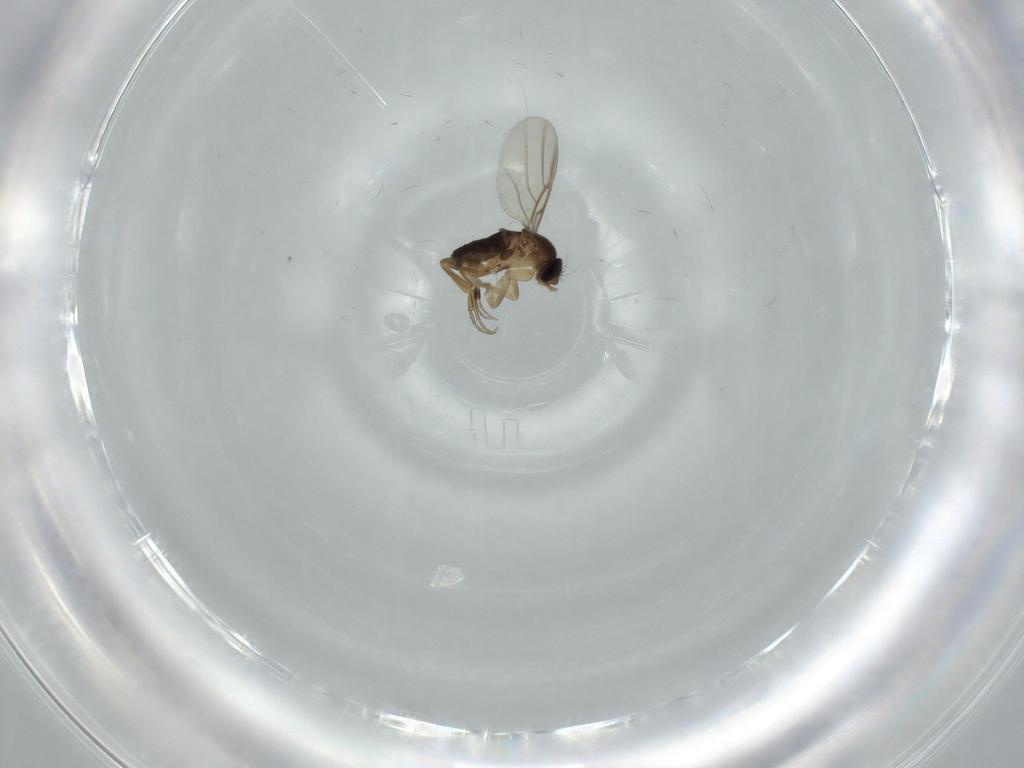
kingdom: Animalia
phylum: Arthropoda
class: Insecta
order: Diptera
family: Phoridae
